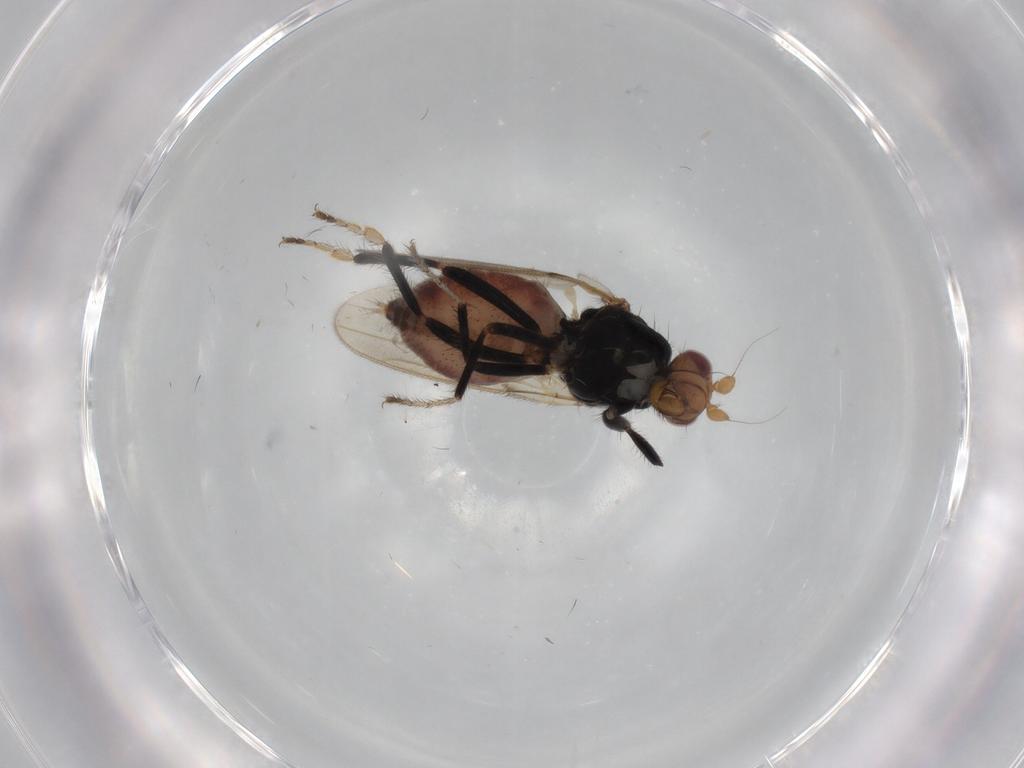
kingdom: Animalia
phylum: Arthropoda
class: Insecta
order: Diptera
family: Sphaeroceridae
